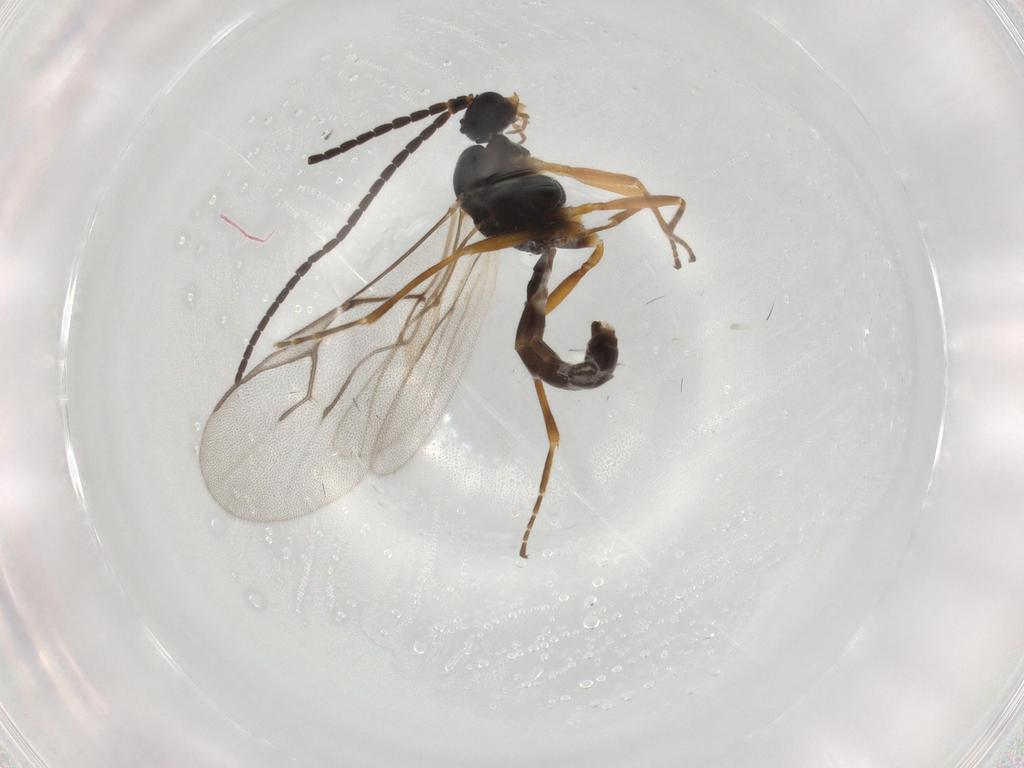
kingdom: Animalia
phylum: Arthropoda
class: Insecta
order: Hymenoptera
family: Braconidae
